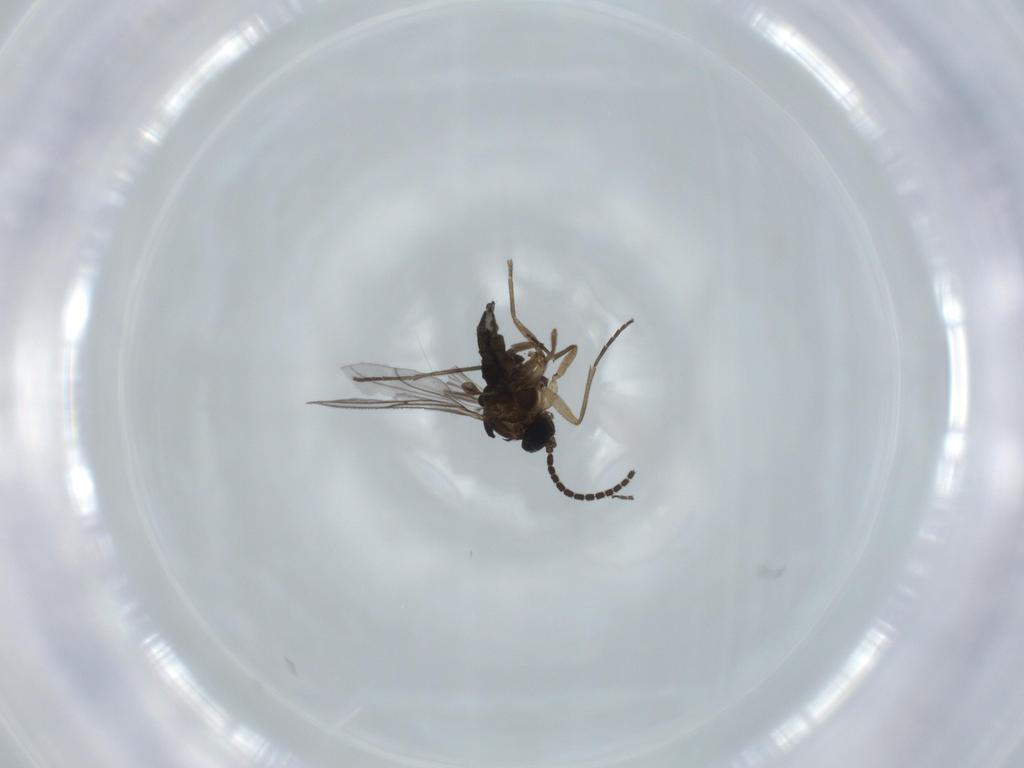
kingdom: Animalia
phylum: Arthropoda
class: Insecta
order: Diptera
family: Sciaridae
